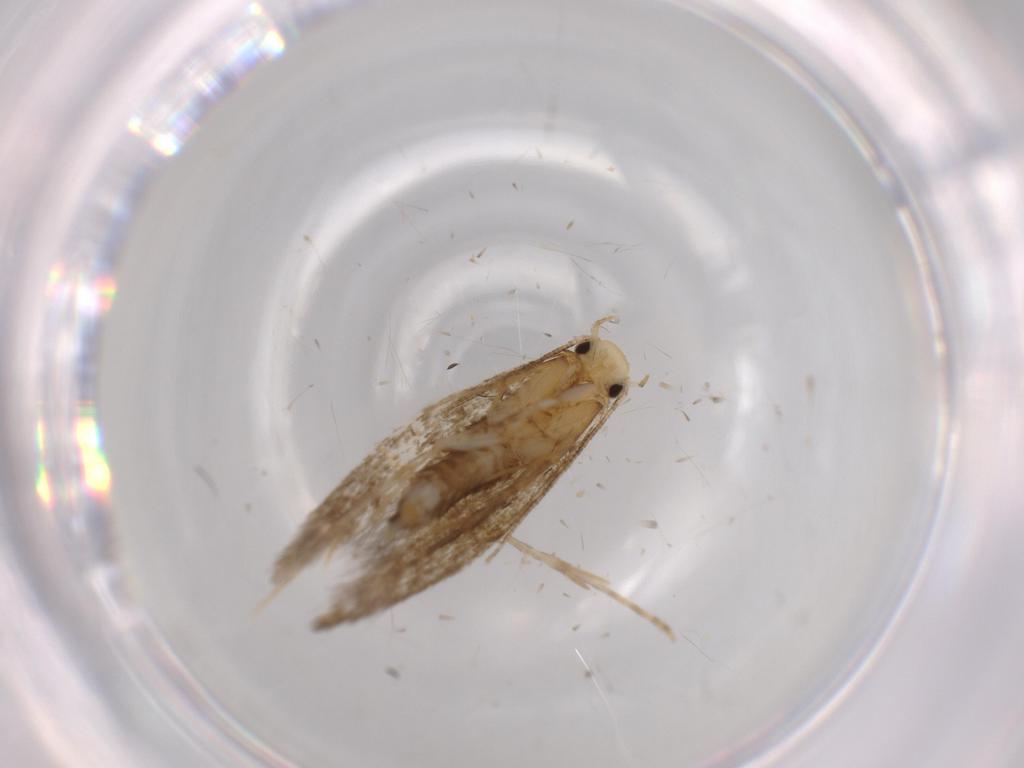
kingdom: Animalia
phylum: Arthropoda
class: Insecta
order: Lepidoptera
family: Tineidae
